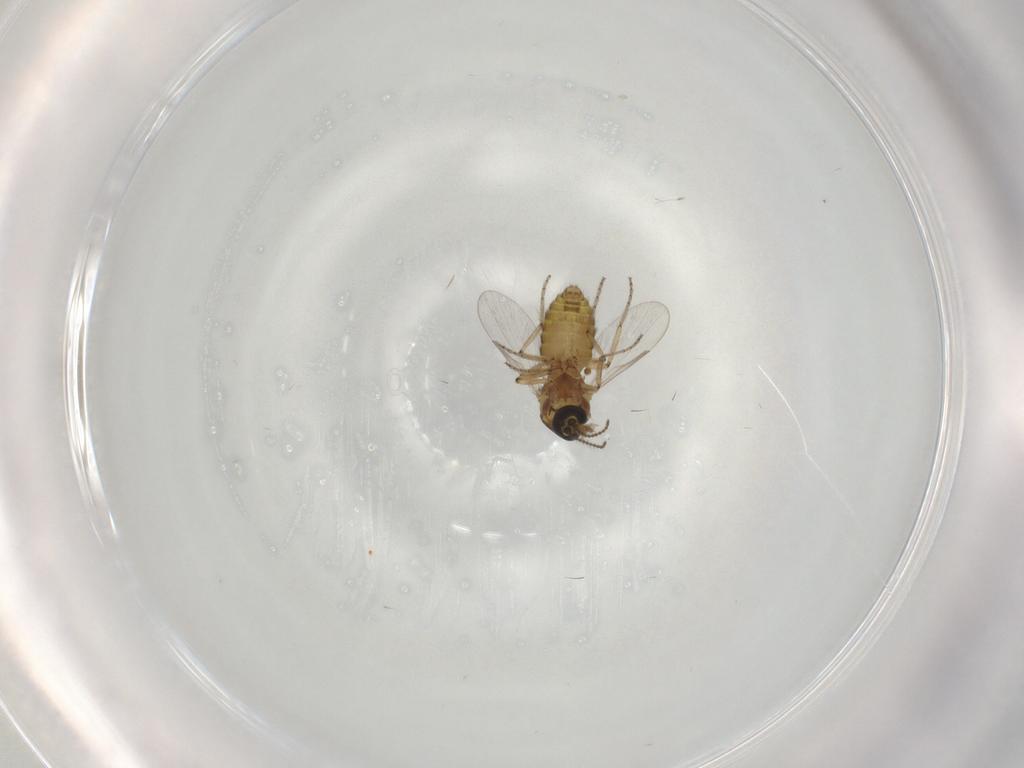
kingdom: Animalia
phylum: Arthropoda
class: Insecta
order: Diptera
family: Ceratopogonidae
